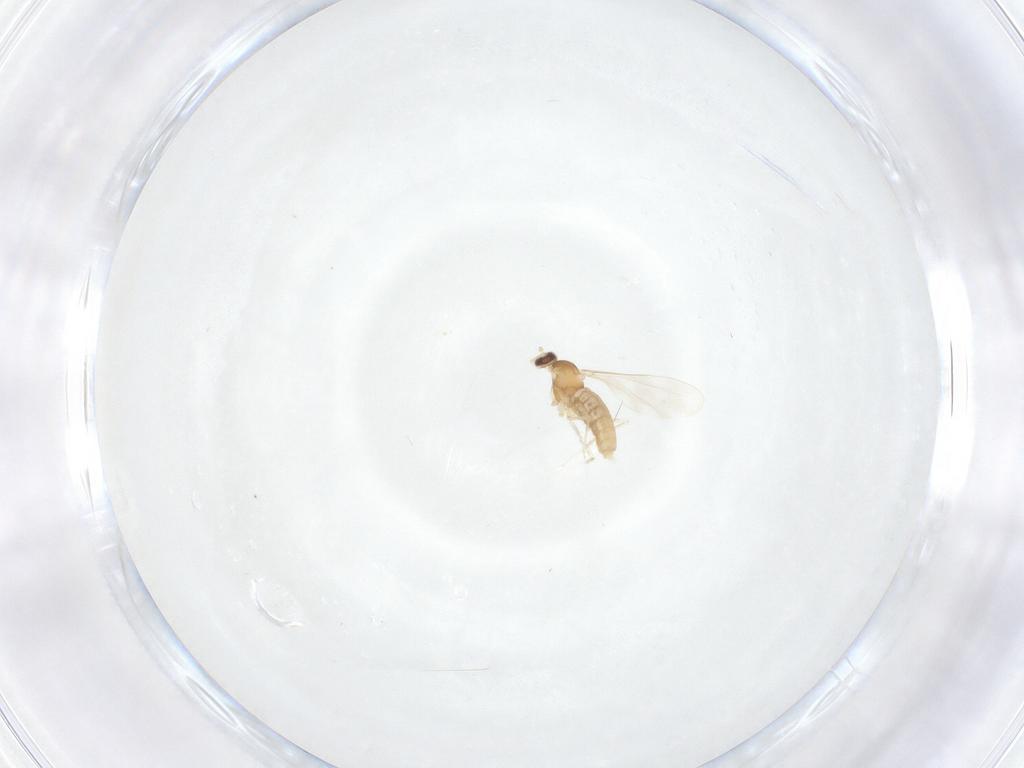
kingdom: Animalia
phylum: Arthropoda
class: Insecta
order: Diptera
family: Cecidomyiidae
